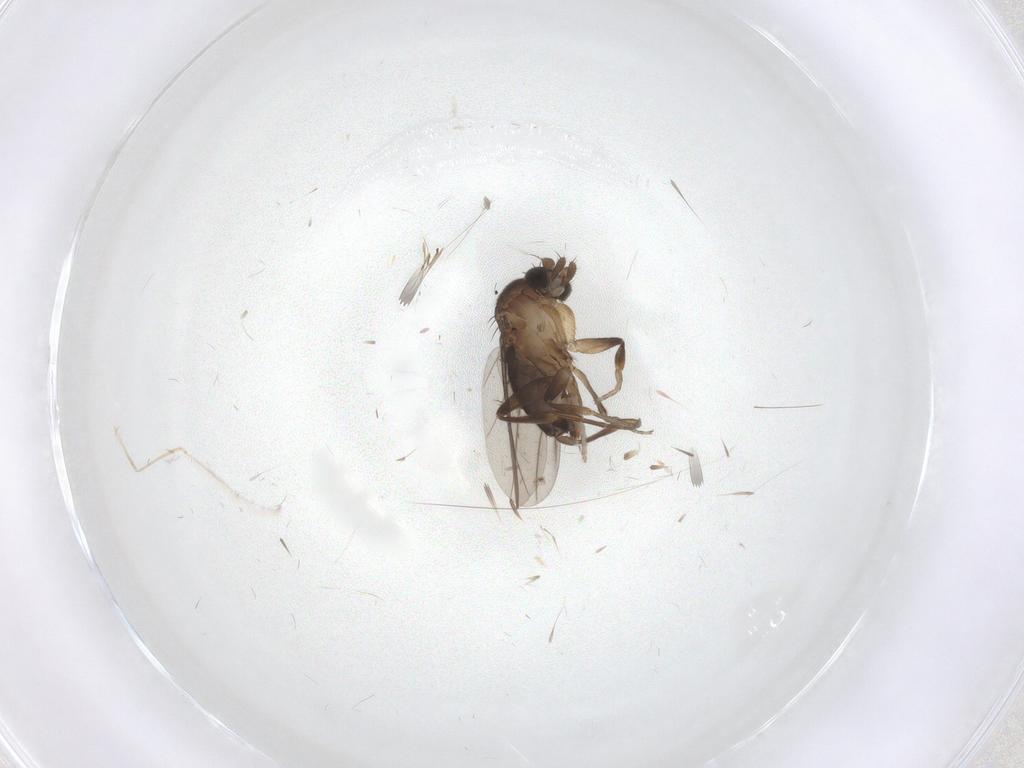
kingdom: Animalia
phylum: Arthropoda
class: Insecta
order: Diptera
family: Phoridae
